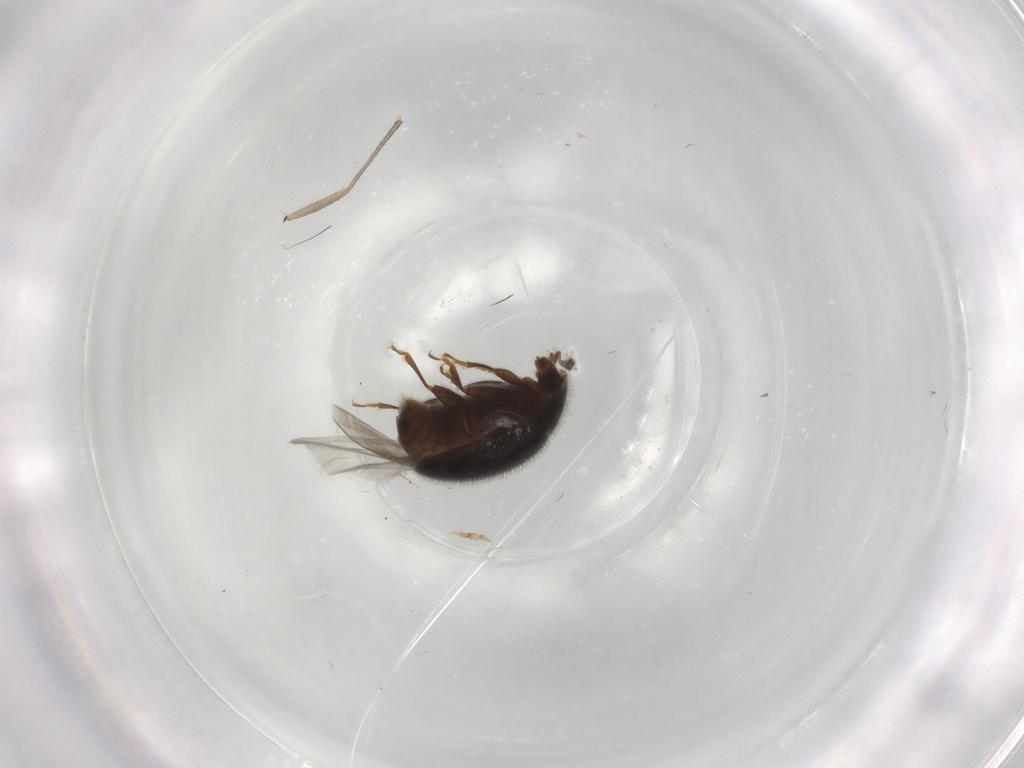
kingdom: Animalia
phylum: Arthropoda
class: Insecta
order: Coleoptera
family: Corylophidae
